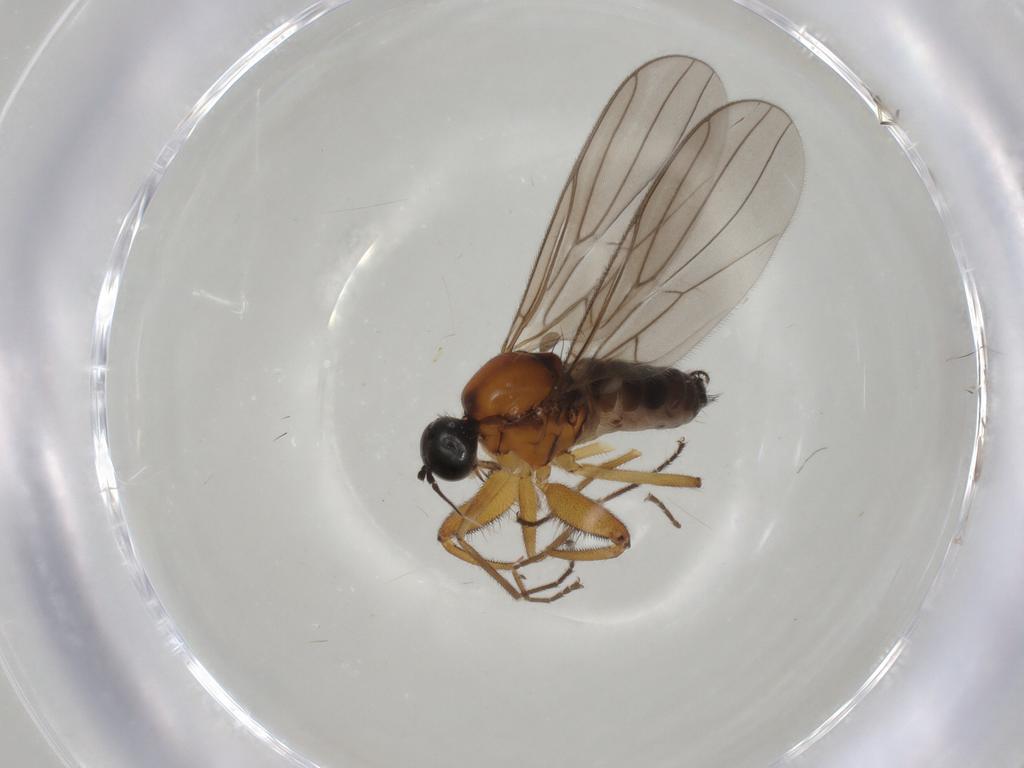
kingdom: Animalia
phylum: Arthropoda
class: Insecta
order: Diptera
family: Hybotidae
